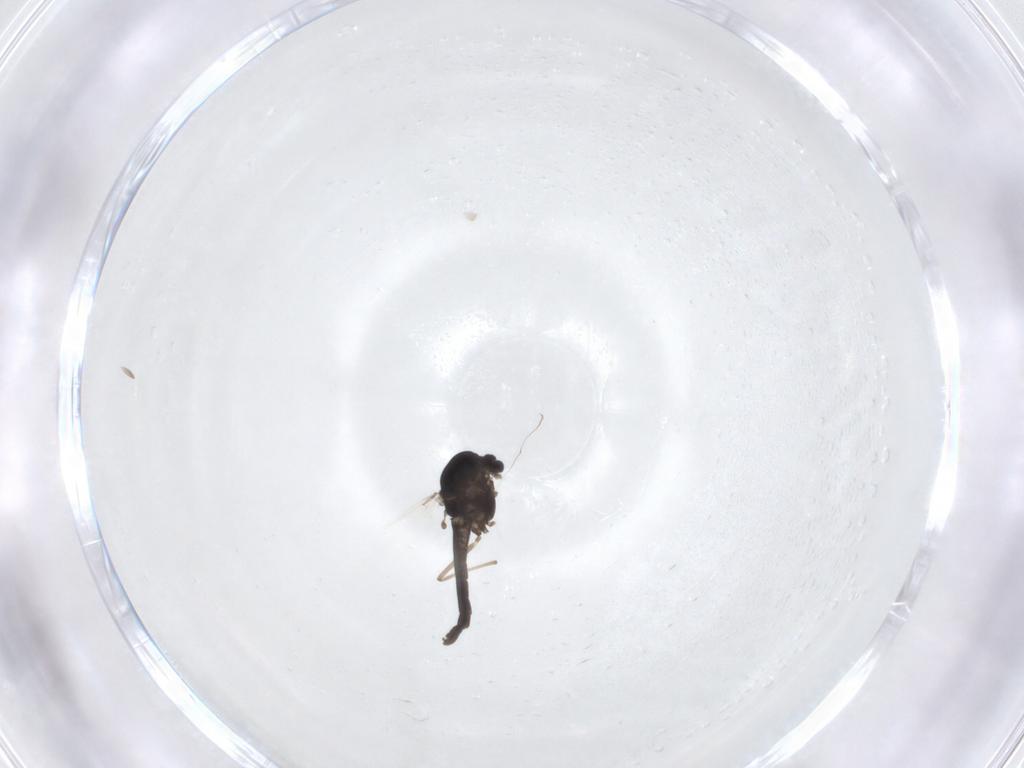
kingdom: Animalia
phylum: Arthropoda
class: Insecta
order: Diptera
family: Chironomidae
